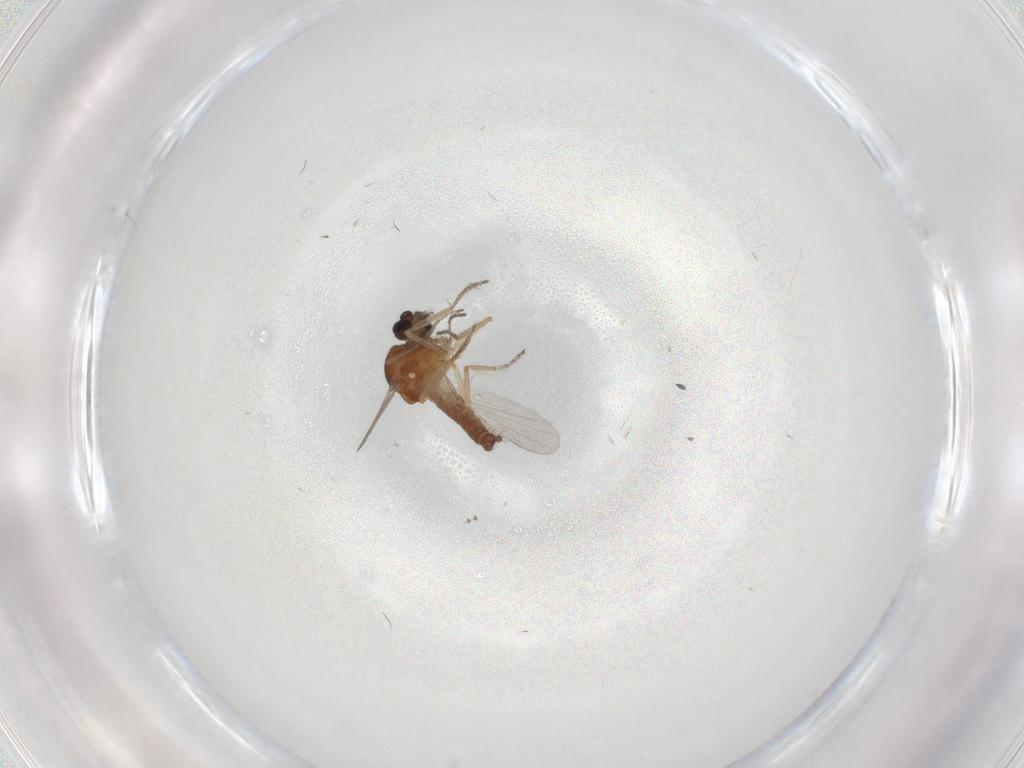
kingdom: Animalia
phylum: Arthropoda
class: Insecta
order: Diptera
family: Ceratopogonidae
